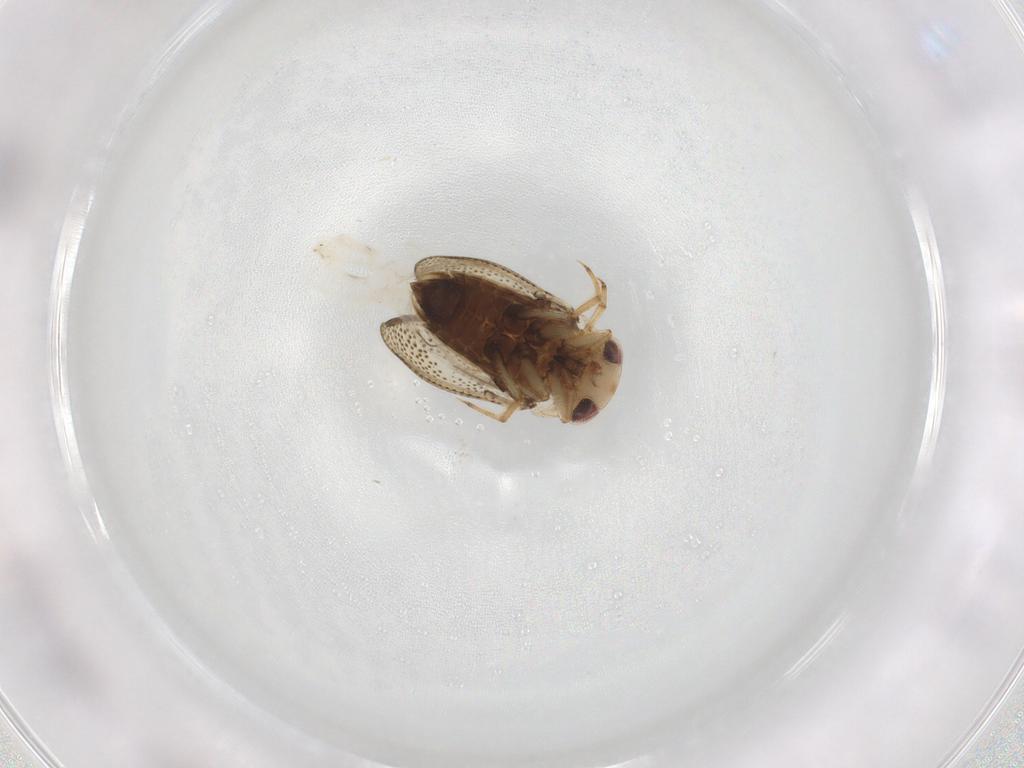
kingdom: Animalia
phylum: Arthropoda
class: Insecta
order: Hemiptera
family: Pleidae
